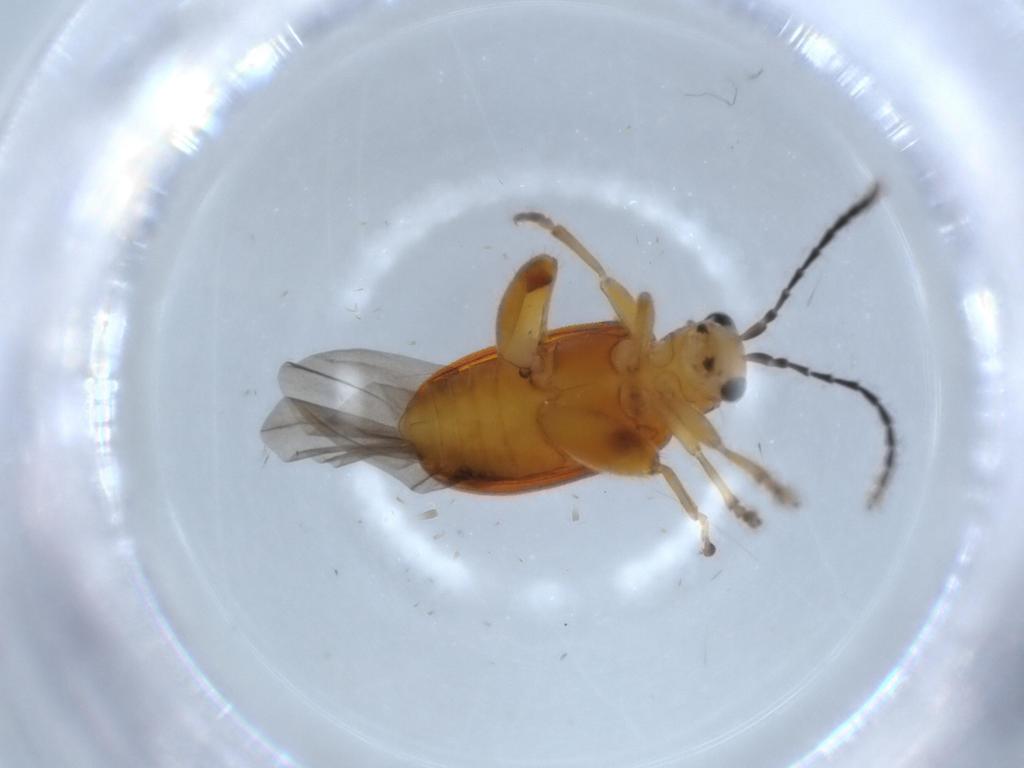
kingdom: Animalia
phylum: Arthropoda
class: Insecta
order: Coleoptera
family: Chrysomelidae
